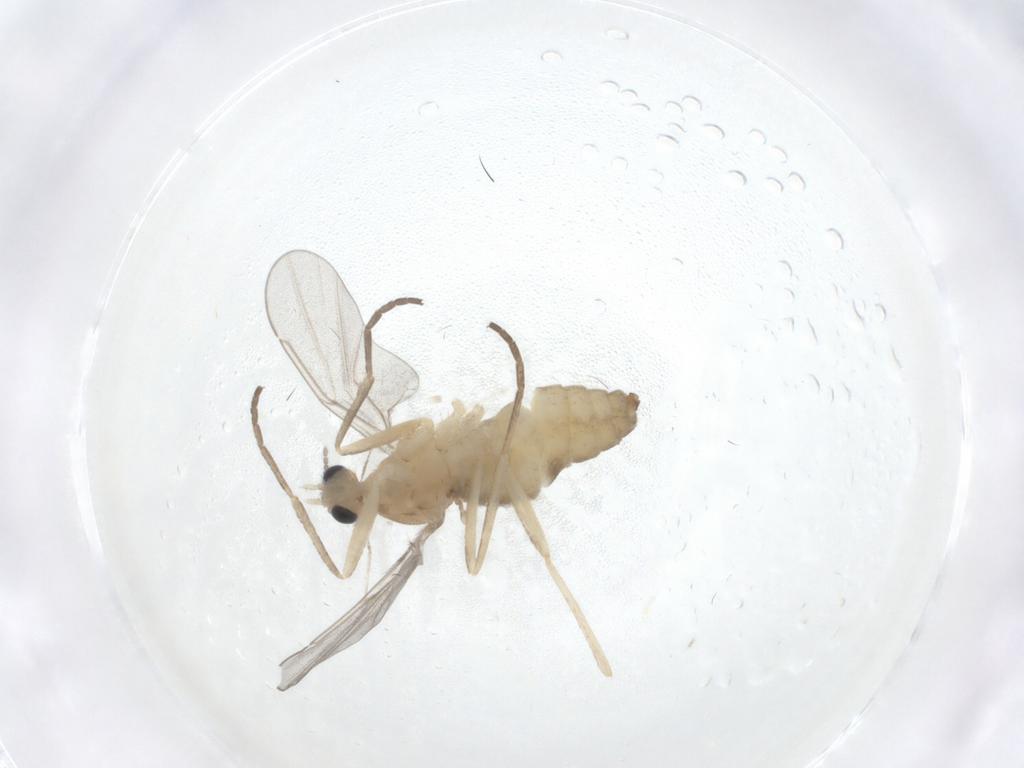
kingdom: Animalia
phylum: Arthropoda
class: Insecta
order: Diptera
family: Cecidomyiidae
